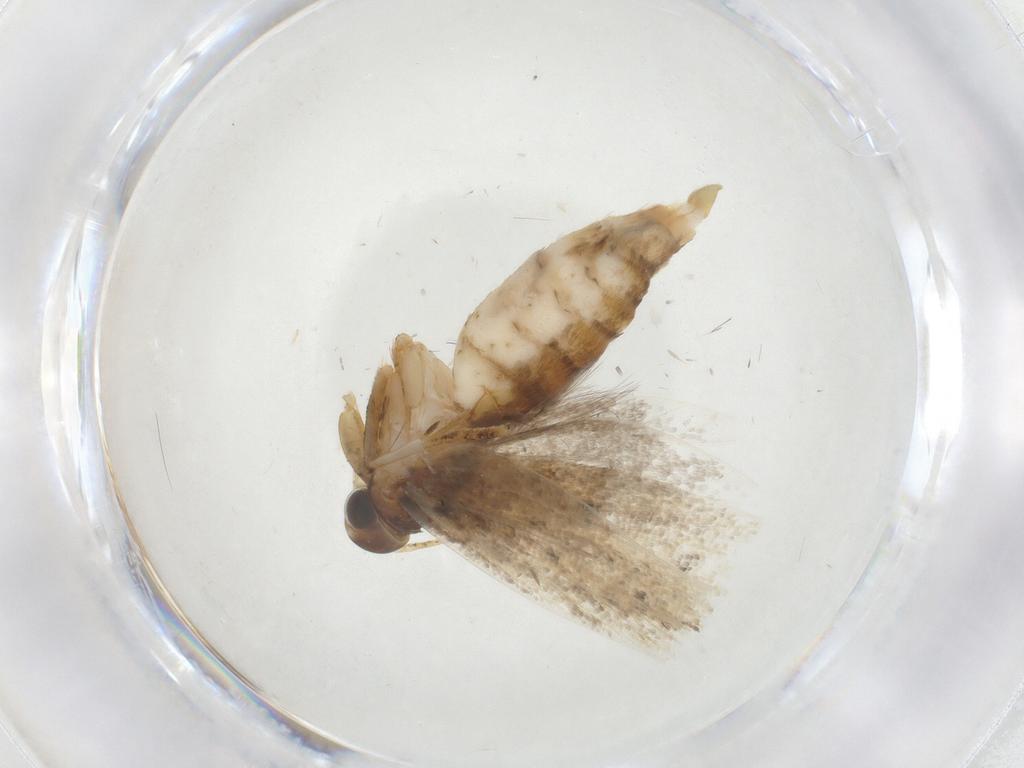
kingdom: Animalia
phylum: Arthropoda
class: Insecta
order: Lepidoptera
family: Oecophoridae
